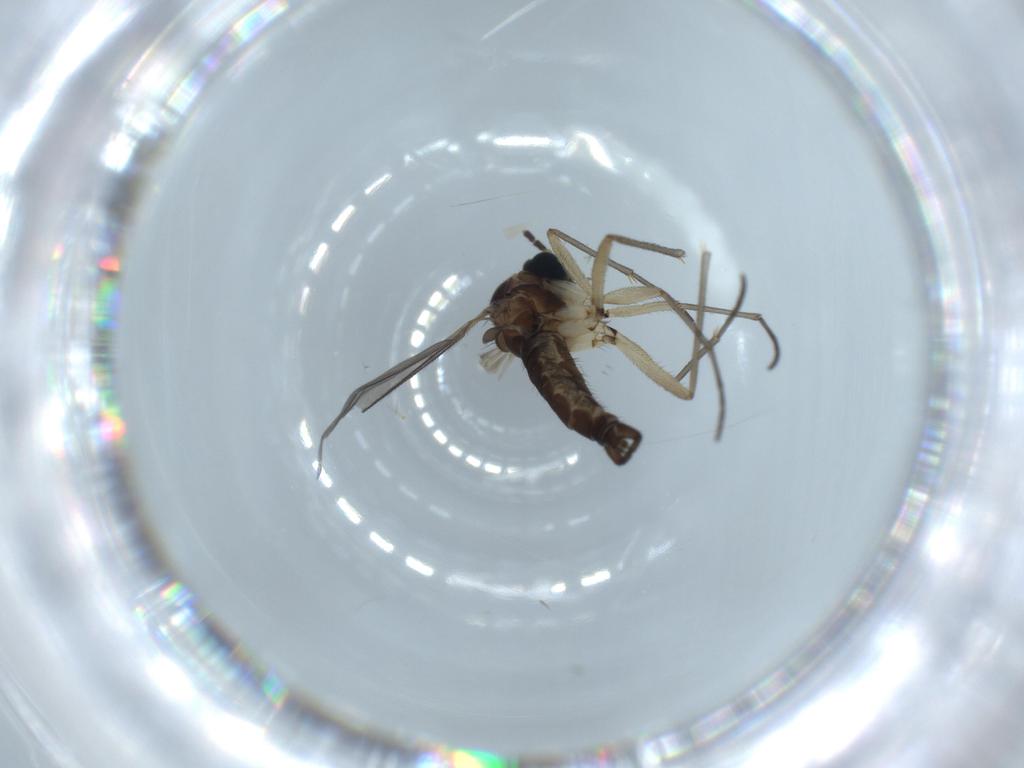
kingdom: Animalia
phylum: Arthropoda
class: Insecta
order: Diptera
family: Sciaridae
